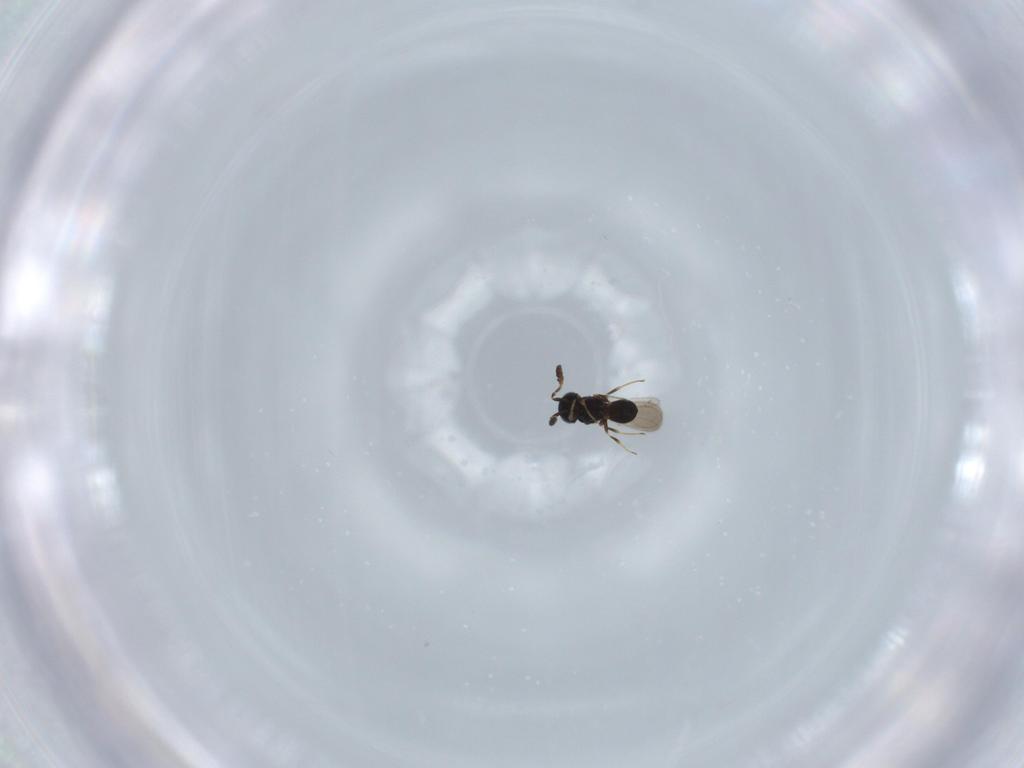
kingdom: Animalia
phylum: Arthropoda
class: Insecta
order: Hymenoptera
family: Scelionidae
